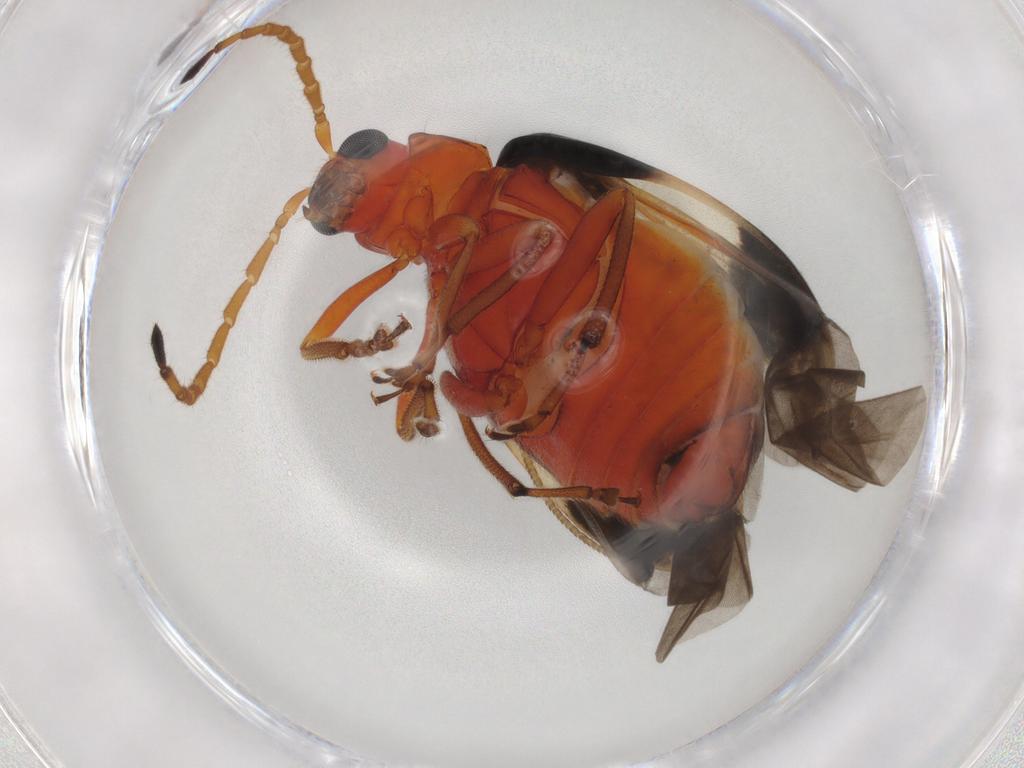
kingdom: Animalia
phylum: Arthropoda
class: Insecta
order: Coleoptera
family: Chrysomelidae
